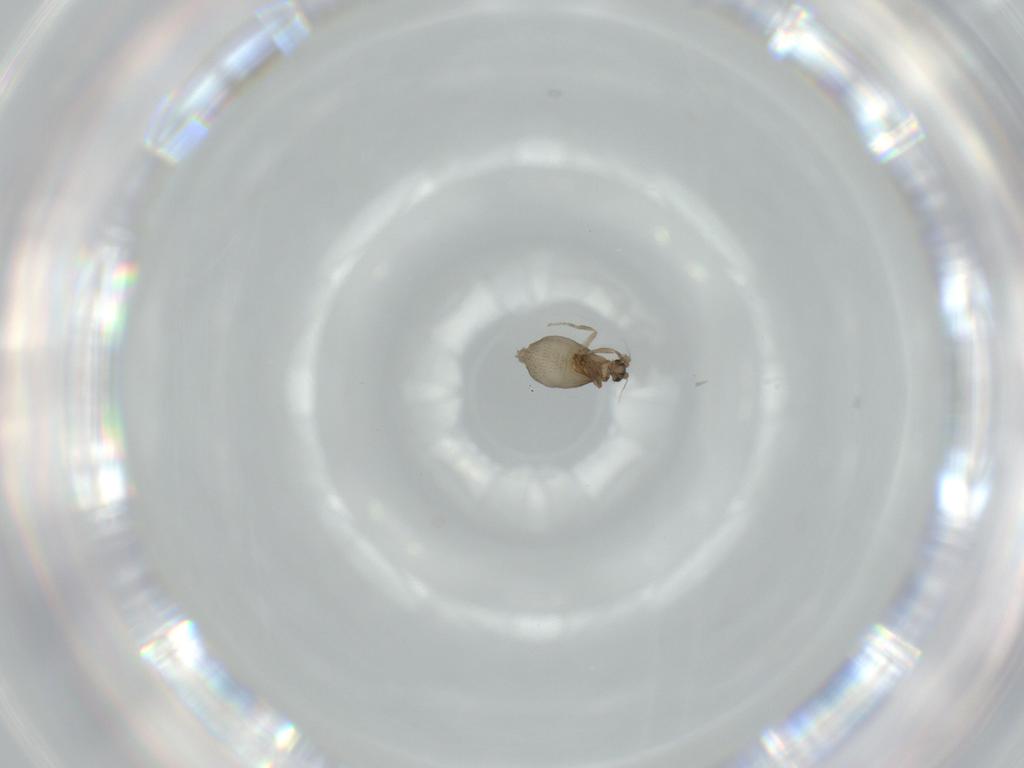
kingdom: Animalia
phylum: Arthropoda
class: Insecta
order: Diptera
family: Phoridae
